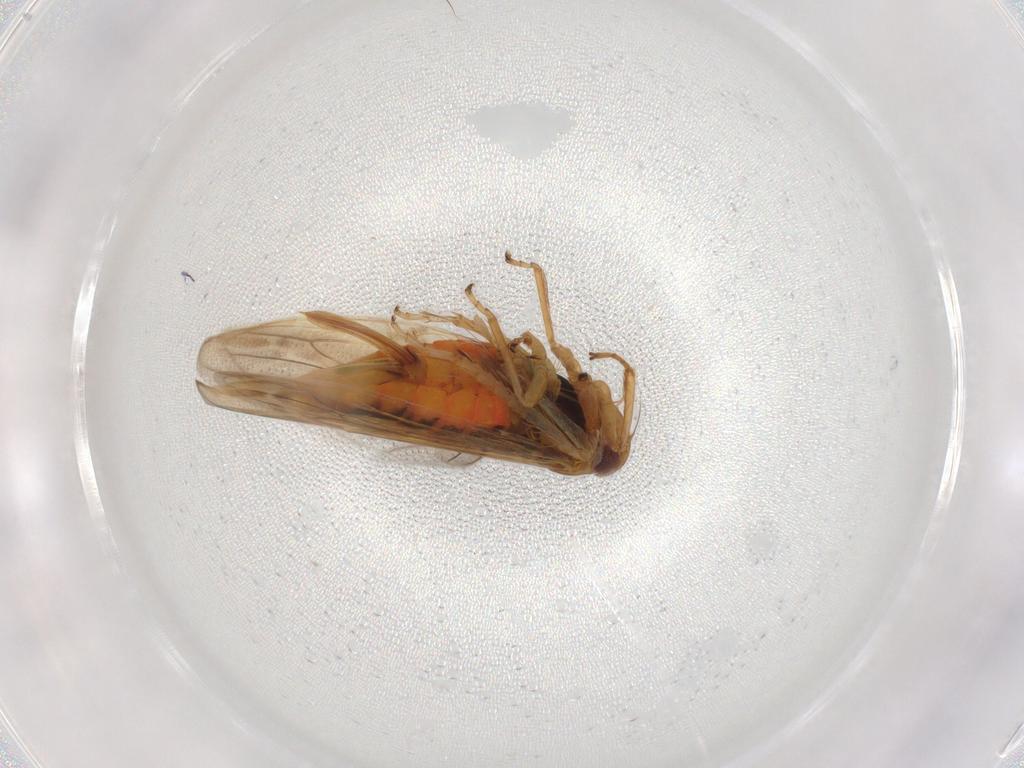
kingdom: Animalia
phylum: Arthropoda
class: Insecta
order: Hemiptera
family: Cicadellidae
